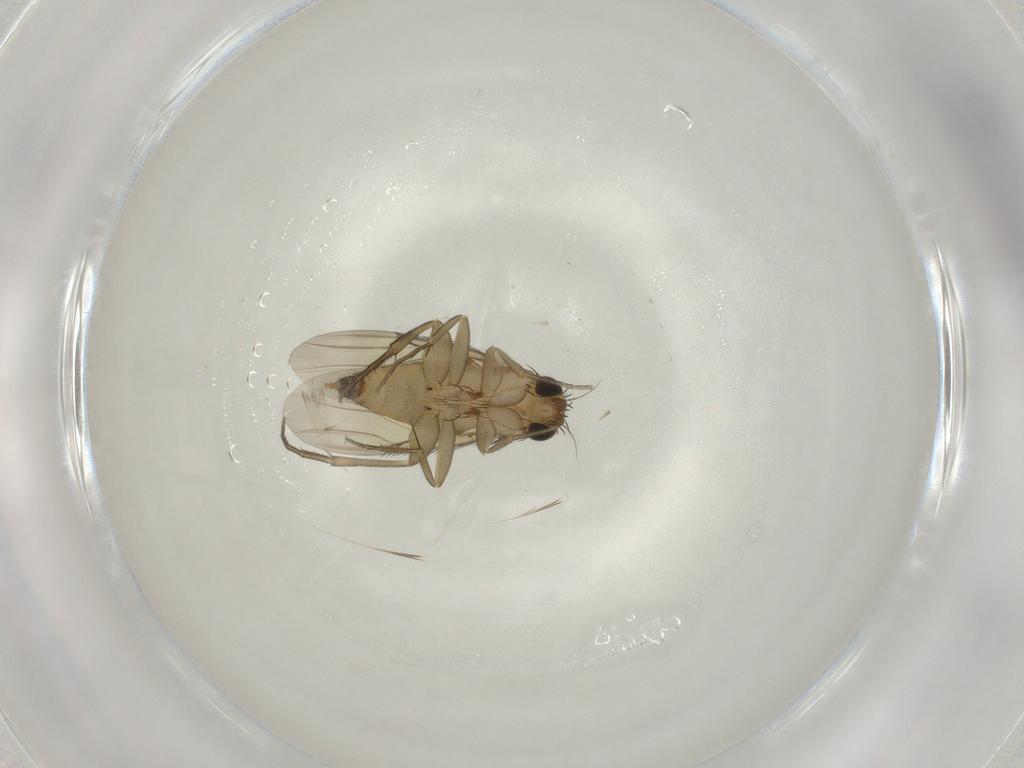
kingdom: Animalia
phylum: Arthropoda
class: Insecta
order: Diptera
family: Phoridae
